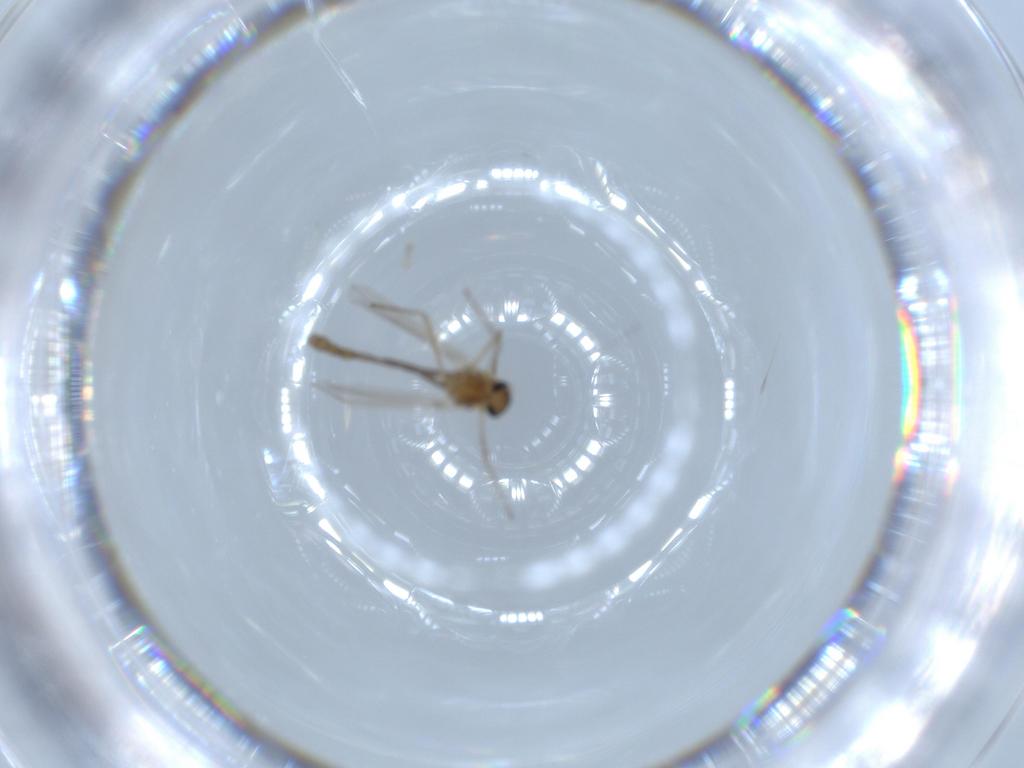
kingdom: Animalia
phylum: Arthropoda
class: Insecta
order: Diptera
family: Chironomidae
